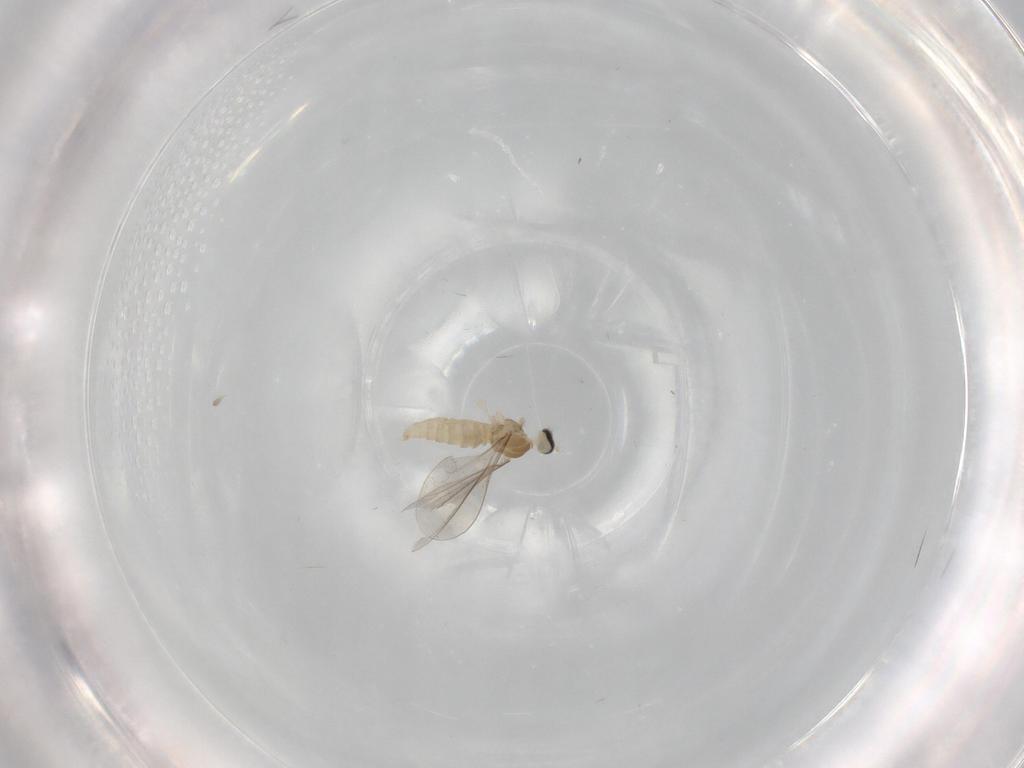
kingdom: Animalia
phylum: Arthropoda
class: Insecta
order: Diptera
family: Cecidomyiidae
